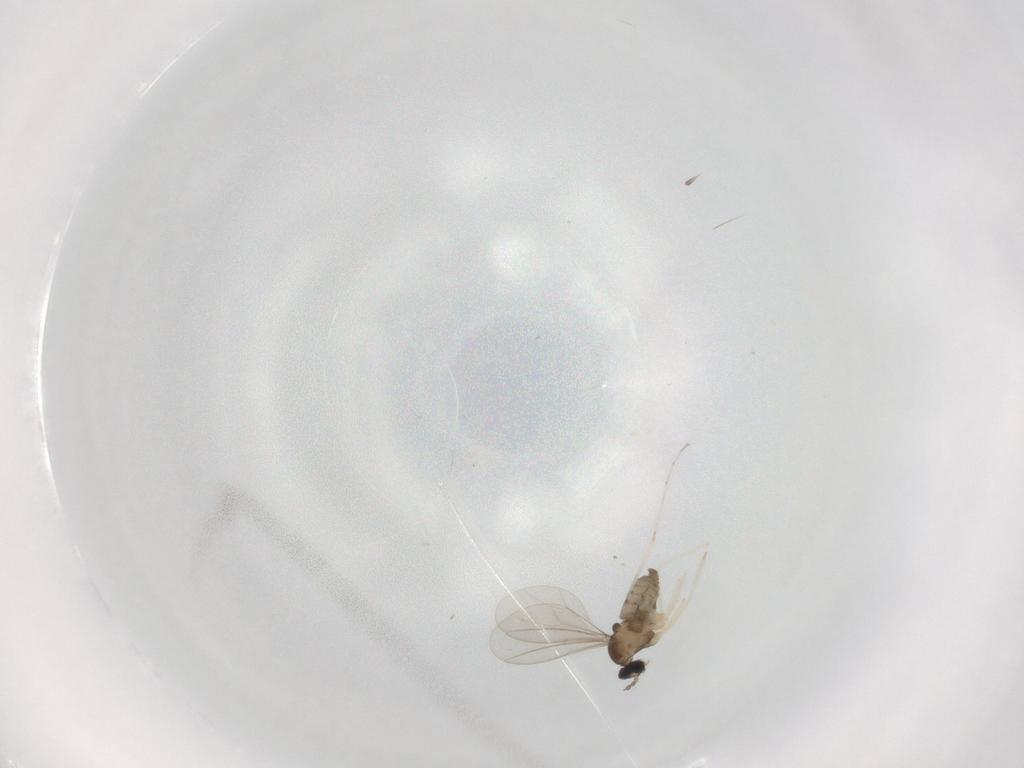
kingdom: Animalia
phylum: Arthropoda
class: Insecta
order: Diptera
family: Cecidomyiidae
